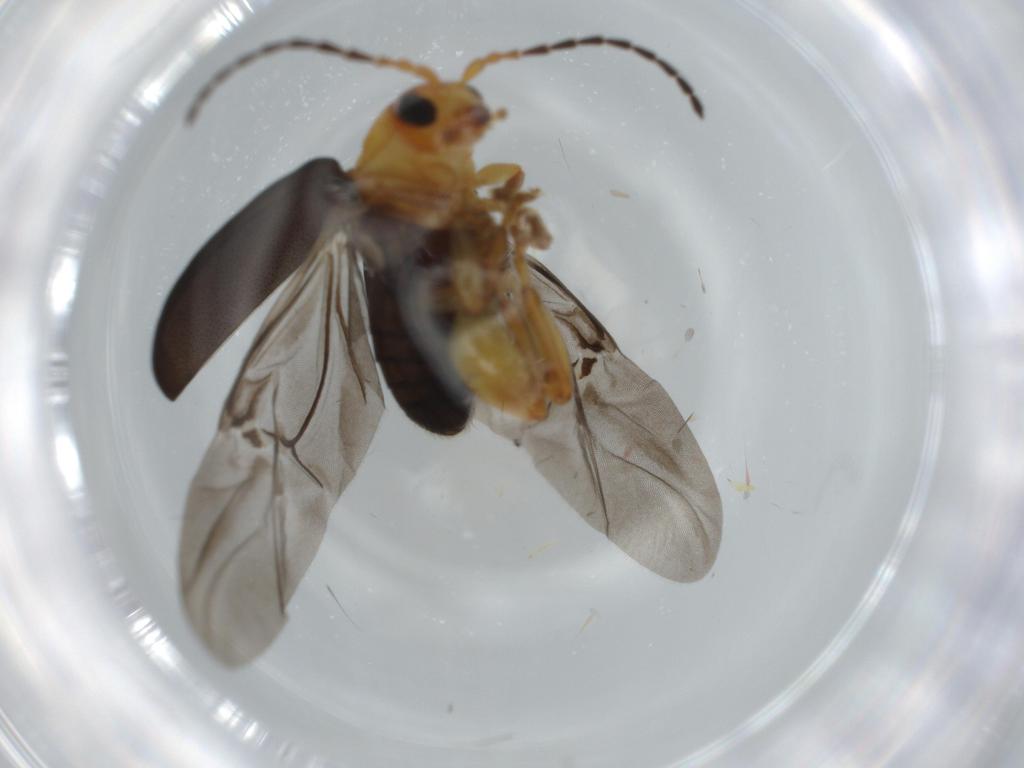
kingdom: Animalia
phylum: Arthropoda
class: Insecta
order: Coleoptera
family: Chrysomelidae
